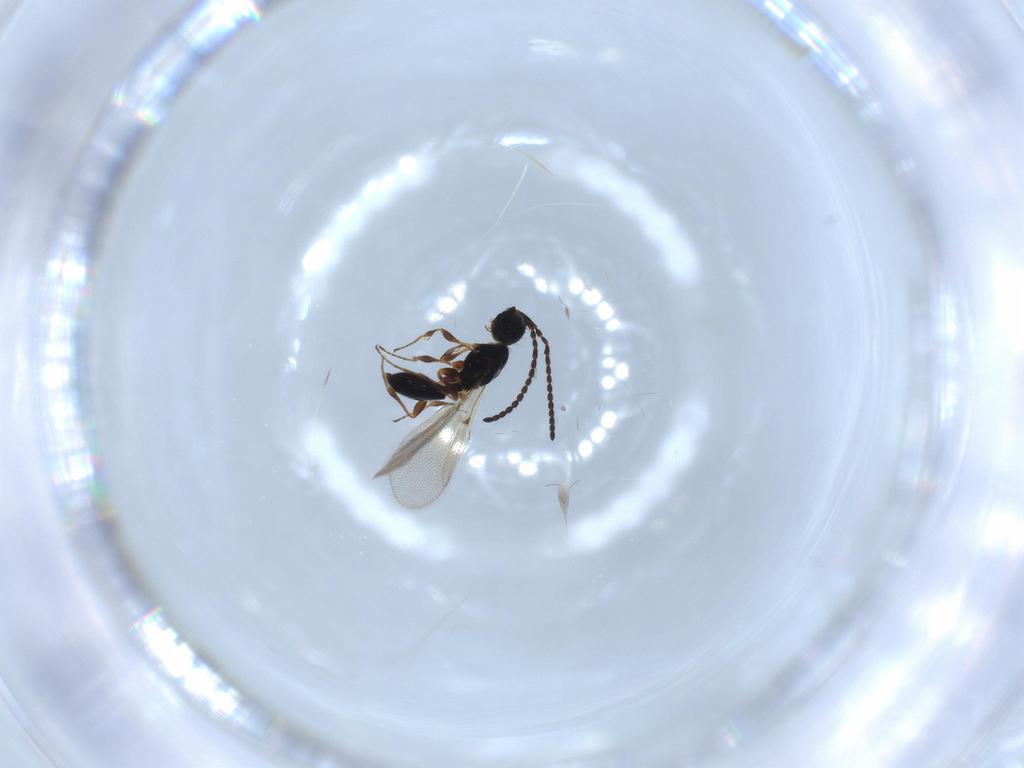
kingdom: Animalia
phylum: Arthropoda
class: Insecta
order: Hymenoptera
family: Diapriidae
